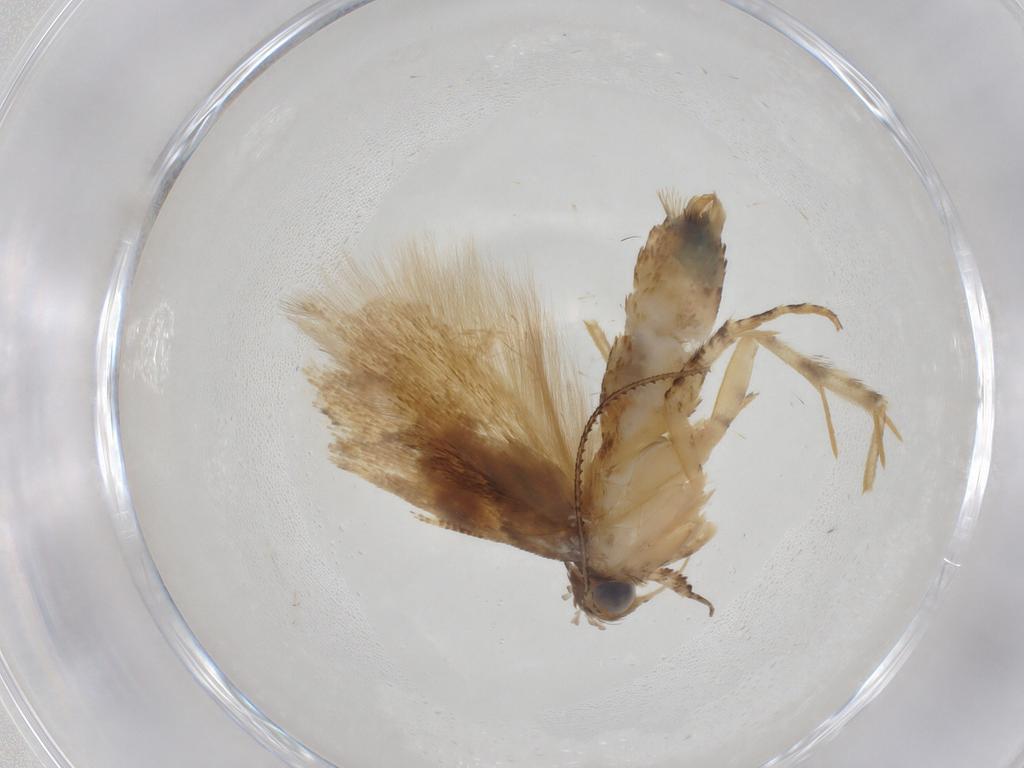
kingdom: Animalia
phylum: Arthropoda
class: Insecta
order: Lepidoptera
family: Gelechiidae
